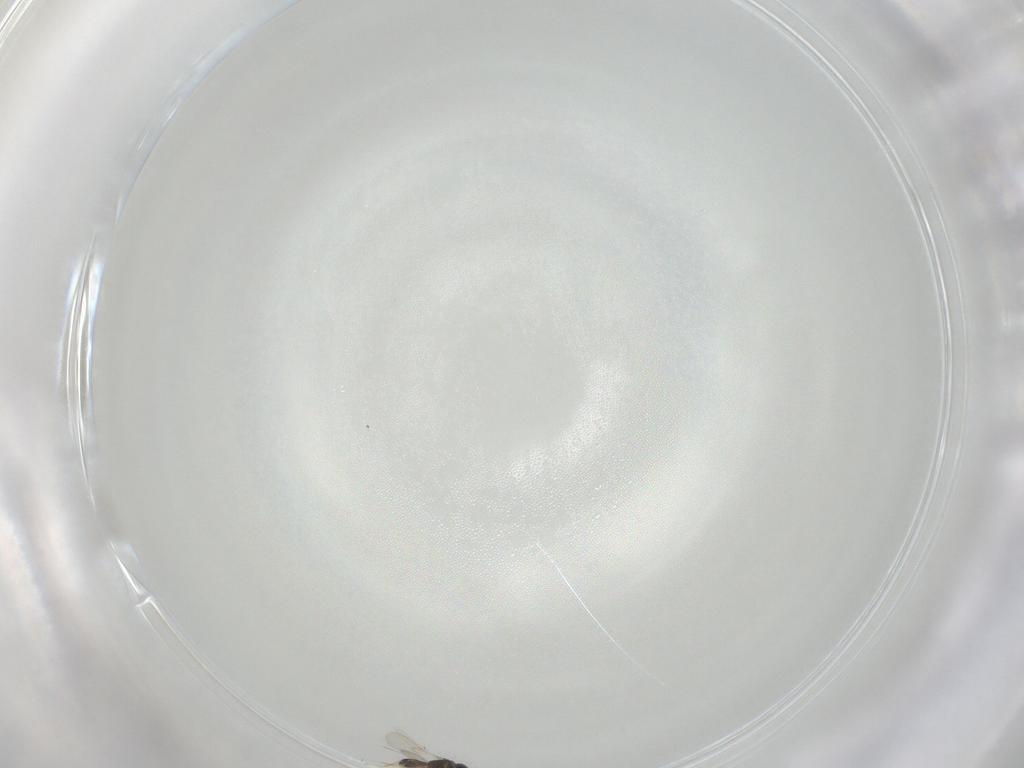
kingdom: Animalia
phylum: Arthropoda
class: Insecta
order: Hymenoptera
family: Scelionidae
